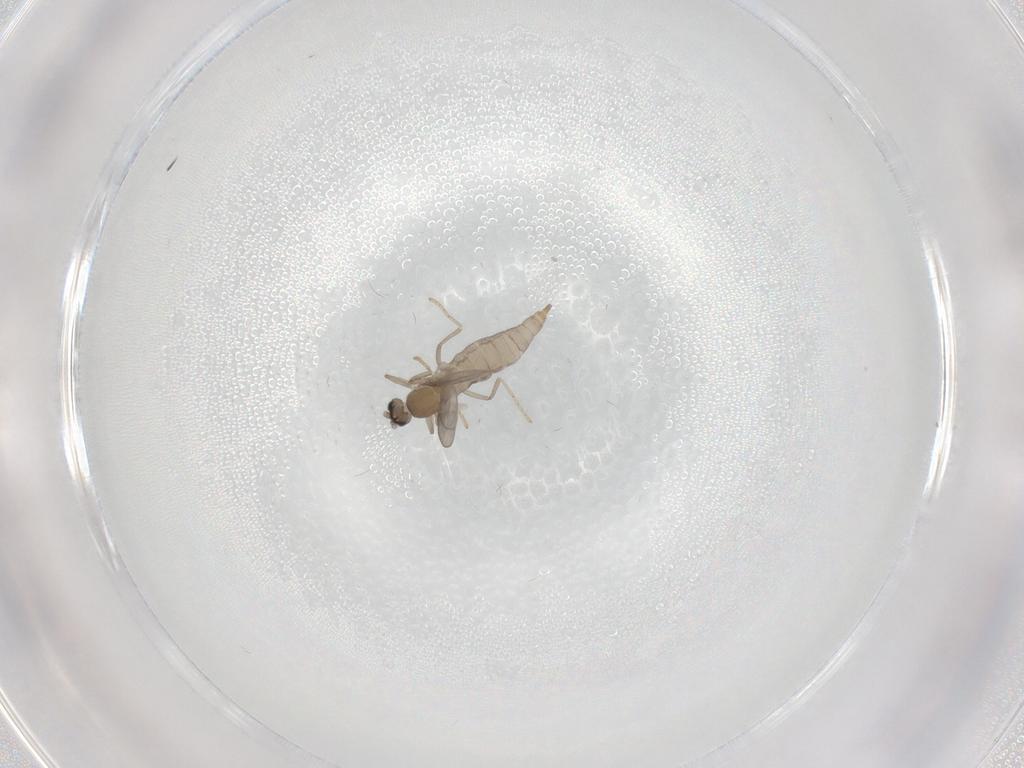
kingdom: Animalia
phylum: Arthropoda
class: Insecta
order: Diptera
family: Ceratopogonidae
